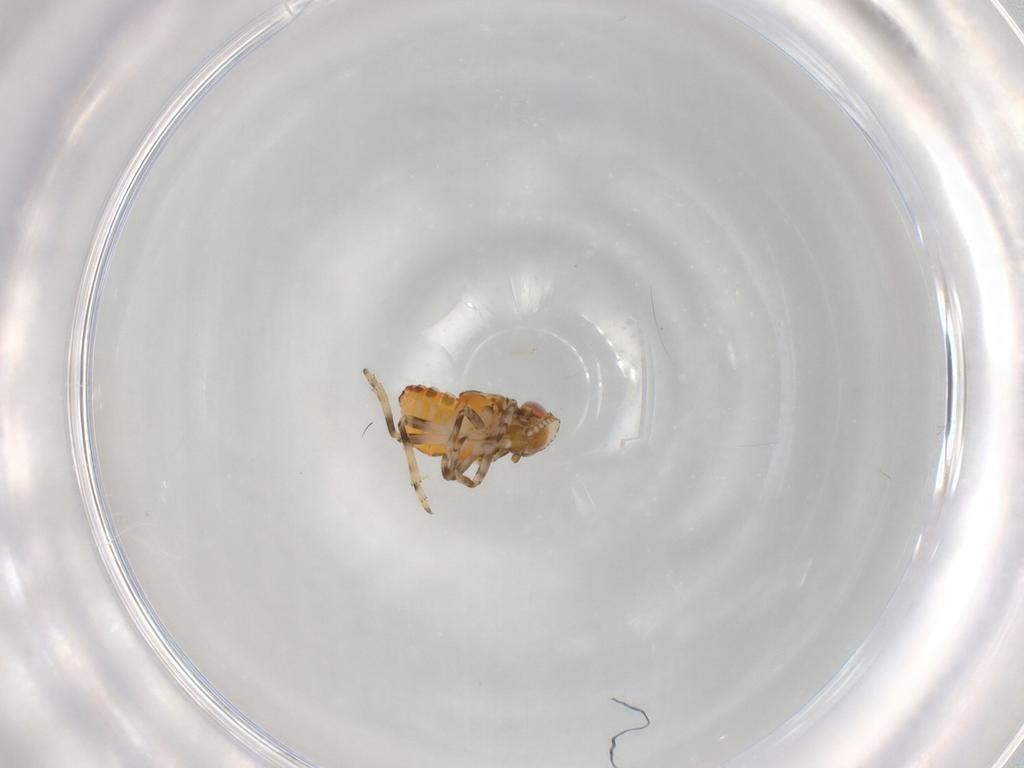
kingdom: Animalia
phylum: Arthropoda
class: Insecta
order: Hemiptera
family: Tropiduchidae
